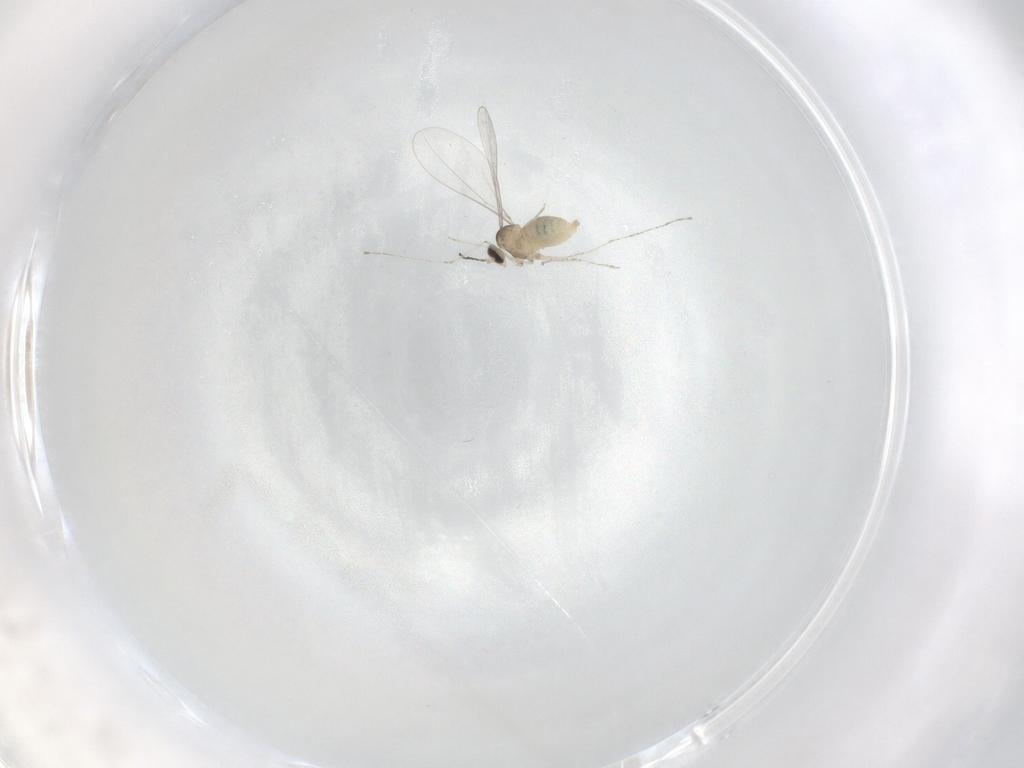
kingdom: Animalia
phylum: Arthropoda
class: Insecta
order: Diptera
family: Cecidomyiidae
